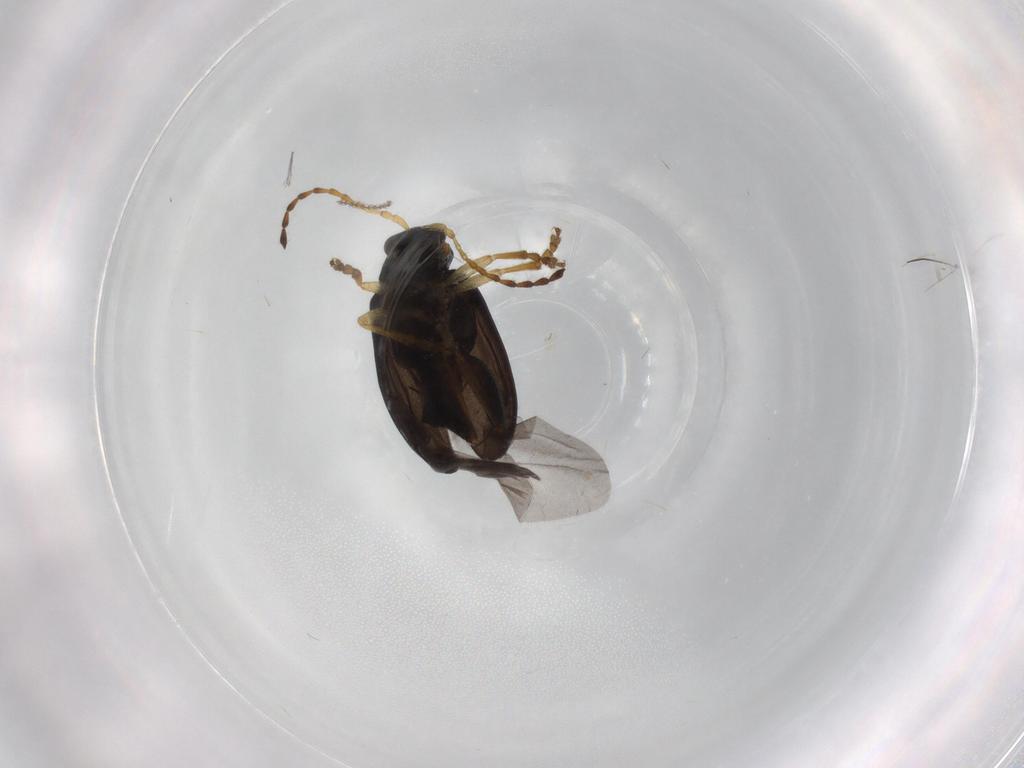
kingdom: Animalia
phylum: Arthropoda
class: Insecta
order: Coleoptera
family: Chrysomelidae
